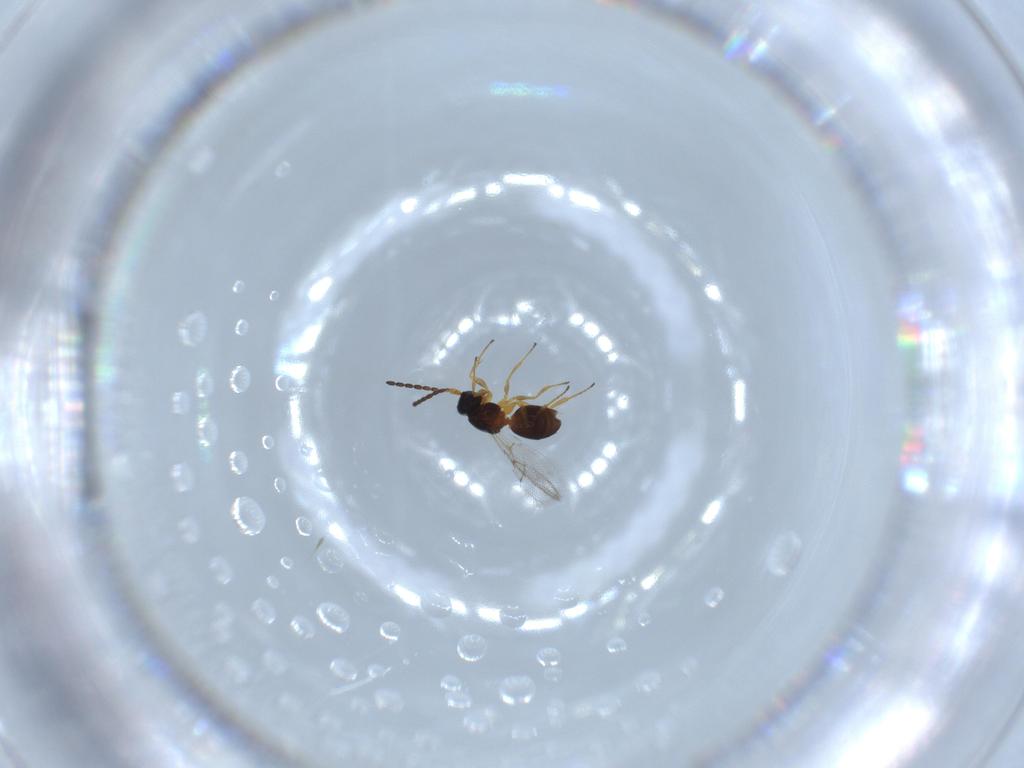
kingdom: Animalia
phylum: Arthropoda
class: Insecta
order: Hymenoptera
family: Figitidae
